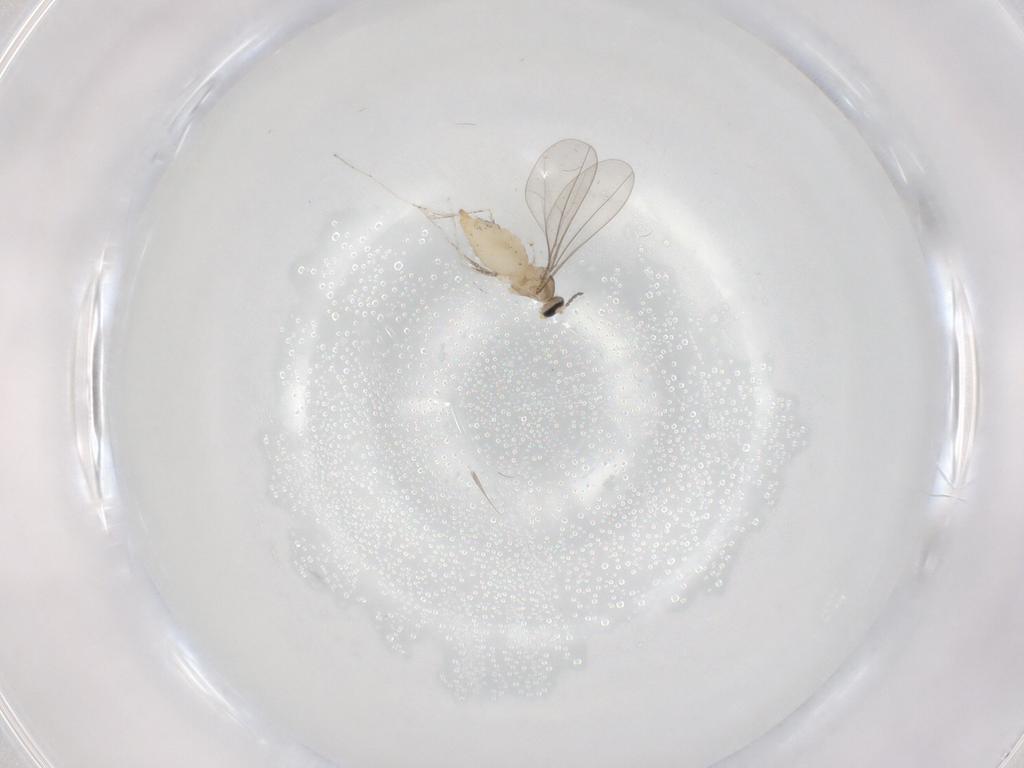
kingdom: Animalia
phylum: Arthropoda
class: Insecta
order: Diptera
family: Cecidomyiidae
